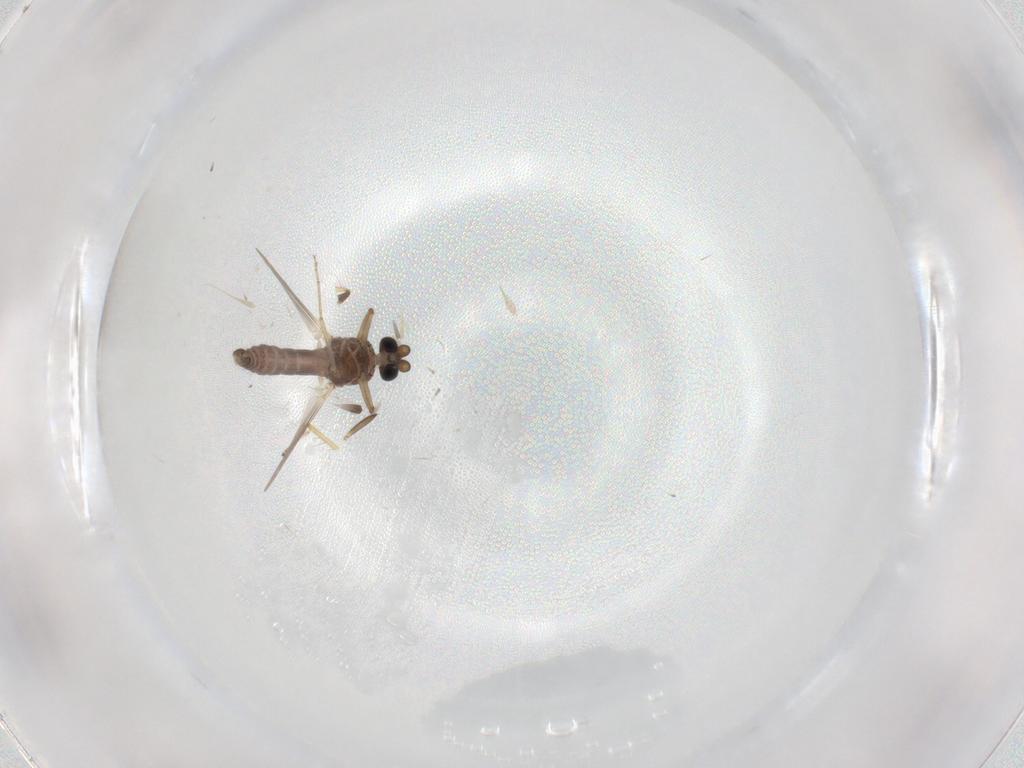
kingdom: Animalia
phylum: Arthropoda
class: Insecta
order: Diptera
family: Ceratopogonidae
